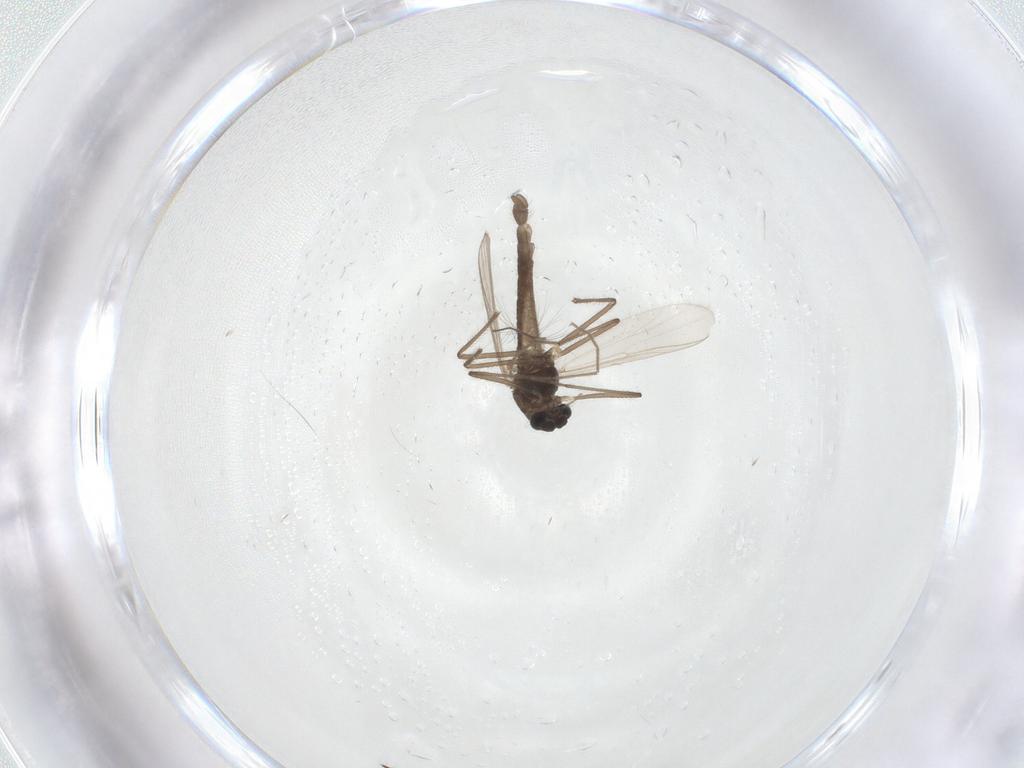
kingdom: Animalia
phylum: Arthropoda
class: Insecta
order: Diptera
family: Chironomidae
